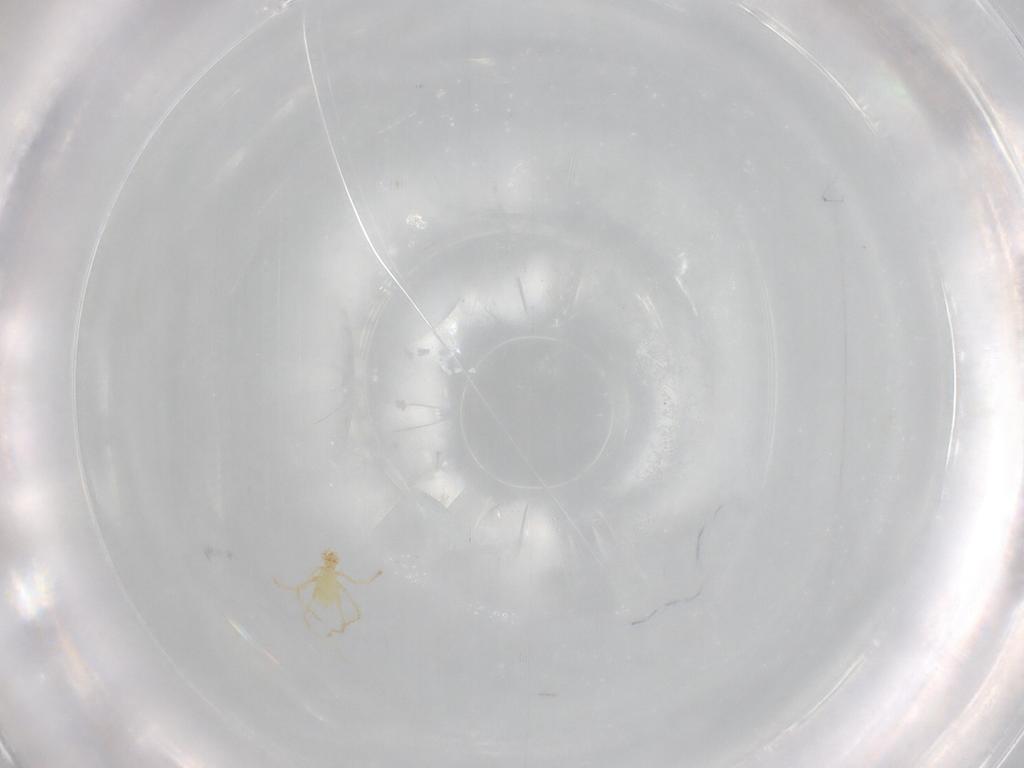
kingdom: Animalia
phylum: Arthropoda
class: Arachnida
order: Trombidiformes
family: Erythraeidae
